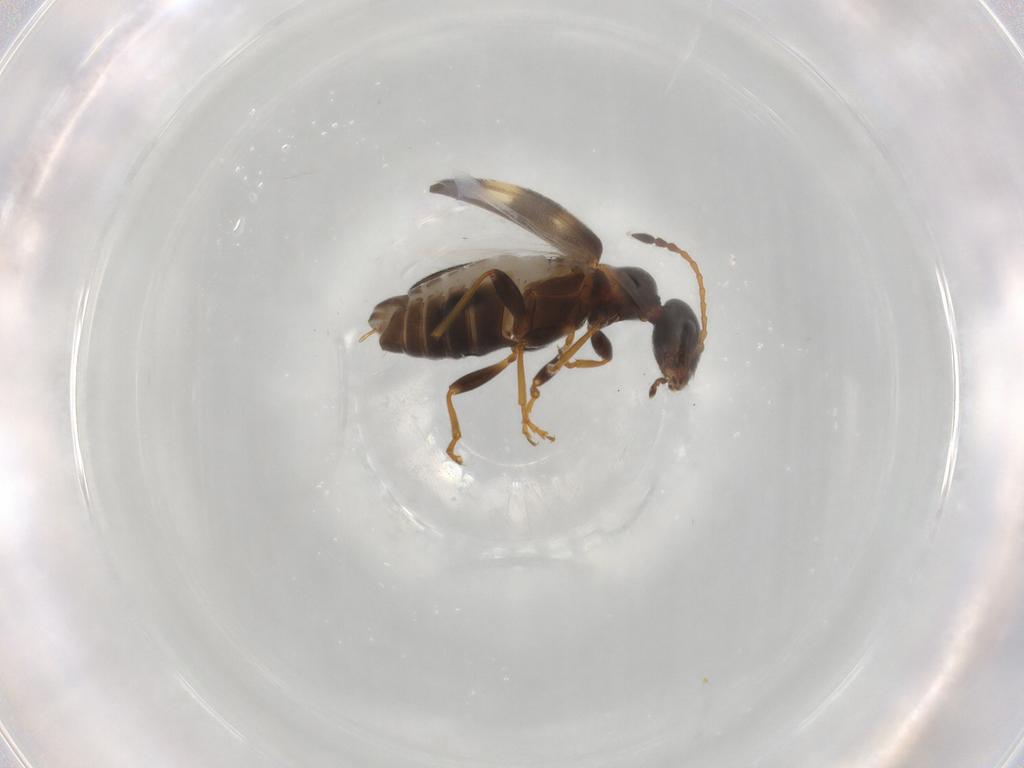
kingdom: Animalia
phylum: Arthropoda
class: Insecta
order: Coleoptera
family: Anthicidae
